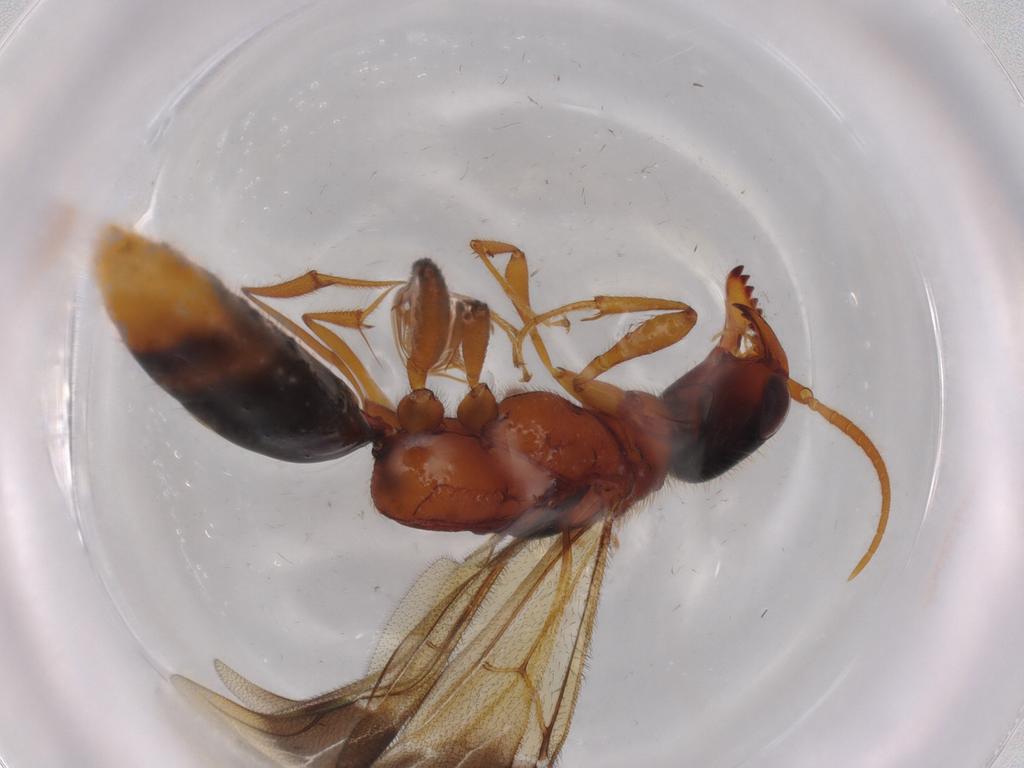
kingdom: Animalia
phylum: Arthropoda
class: Insecta
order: Hymenoptera
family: Bethylidae
